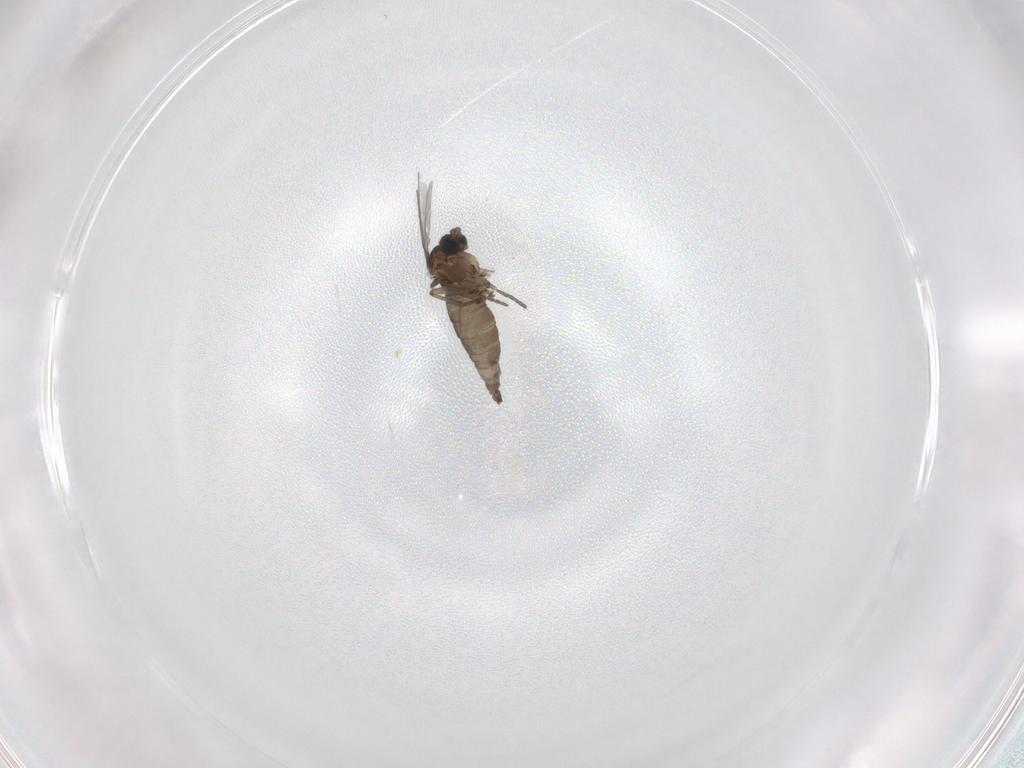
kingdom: Animalia
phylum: Arthropoda
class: Insecta
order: Diptera
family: Sciaridae
